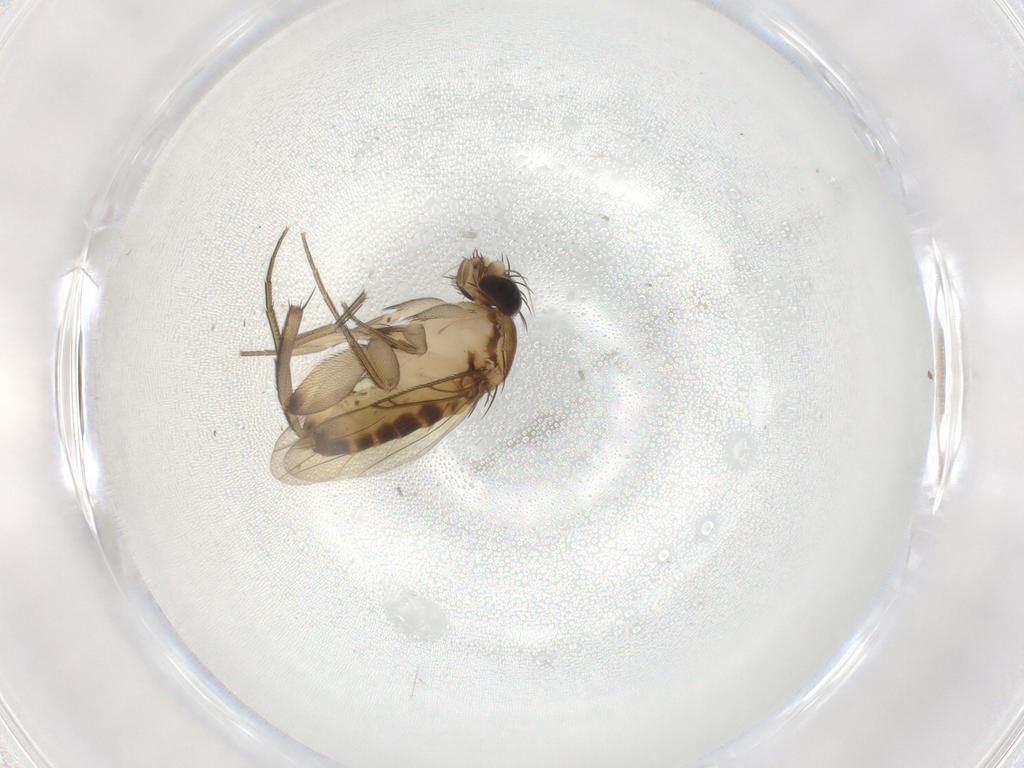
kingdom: Animalia
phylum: Arthropoda
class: Insecta
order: Diptera
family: Phoridae
